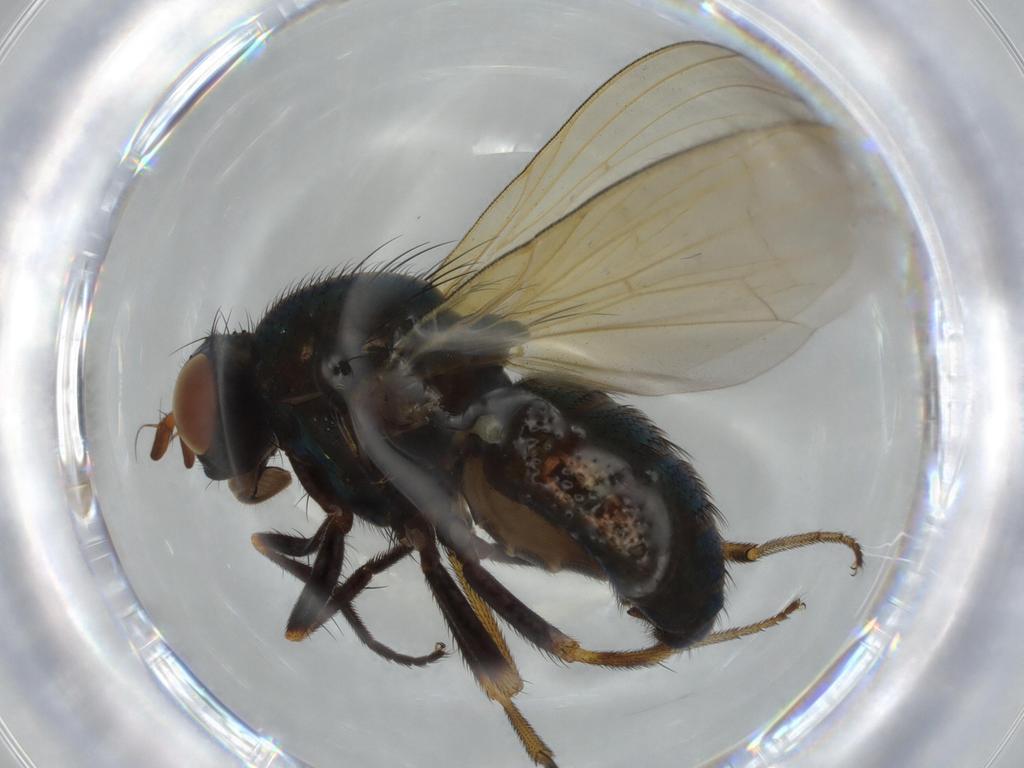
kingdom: Animalia
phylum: Arthropoda
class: Insecta
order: Diptera
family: Lauxaniidae
